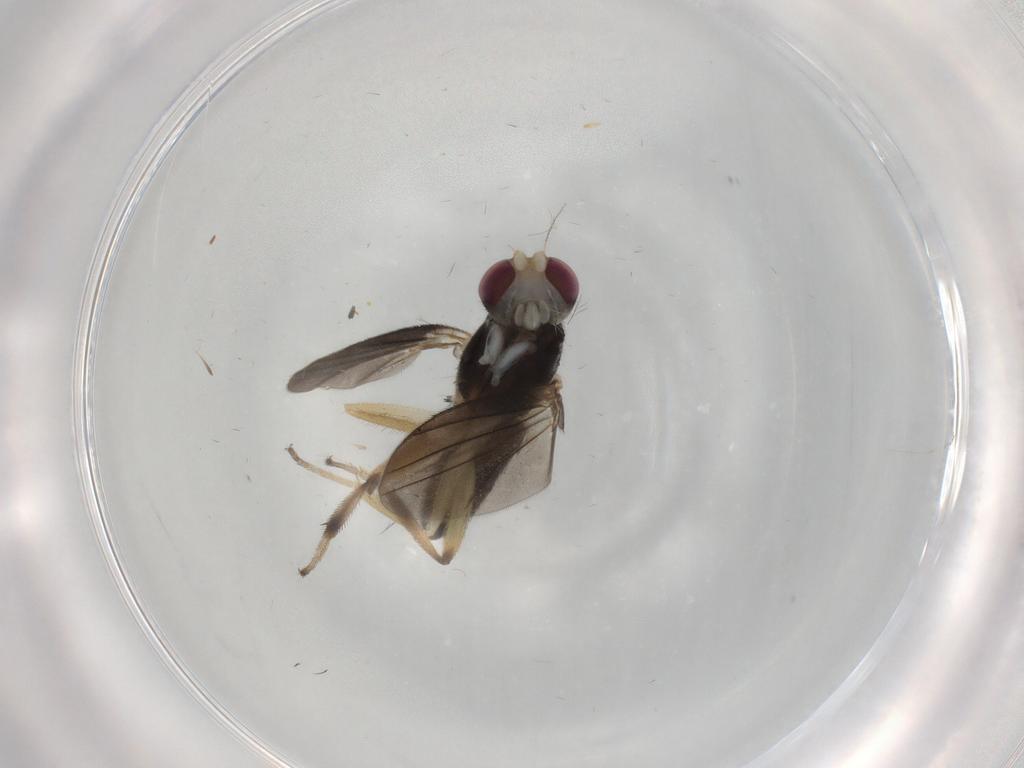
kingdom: Animalia
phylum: Arthropoda
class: Insecta
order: Diptera
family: Clusiidae
